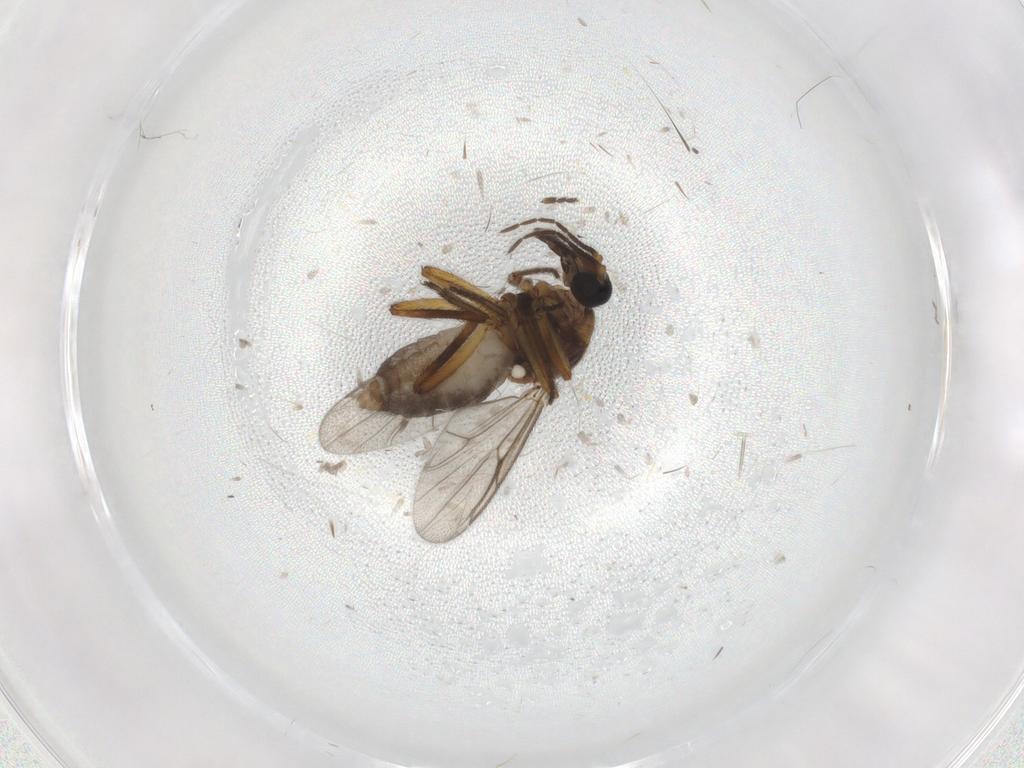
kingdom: Animalia
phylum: Arthropoda
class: Insecta
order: Diptera
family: Ceratopogonidae
